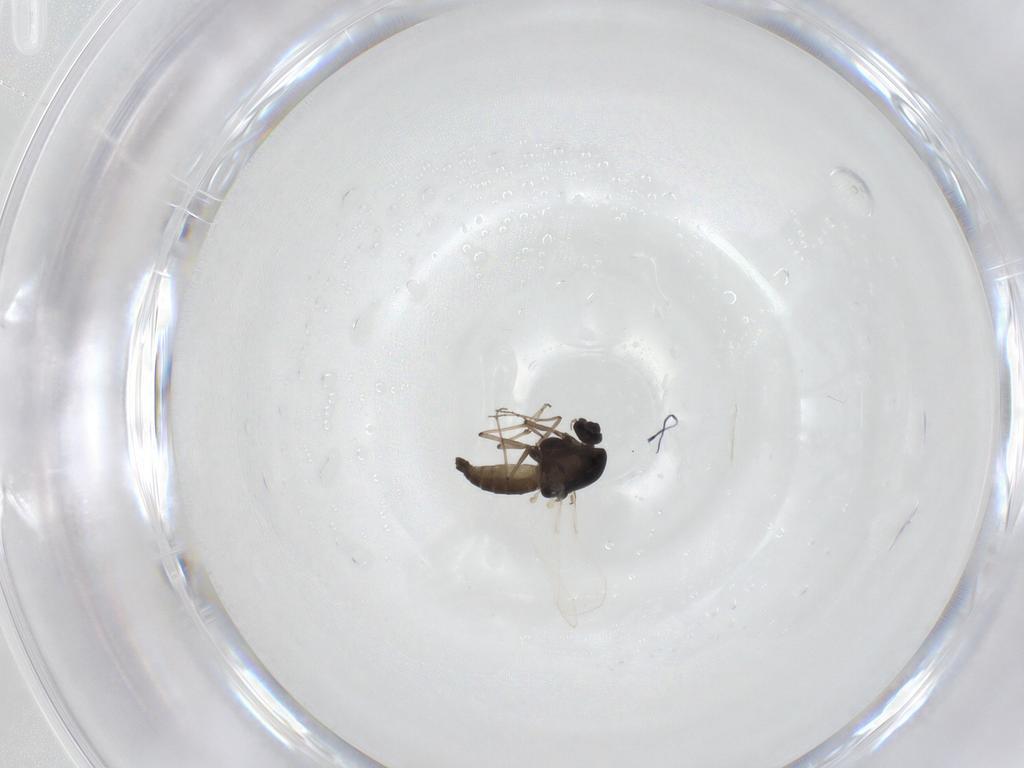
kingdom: Animalia
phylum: Arthropoda
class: Insecta
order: Diptera
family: Chironomidae
